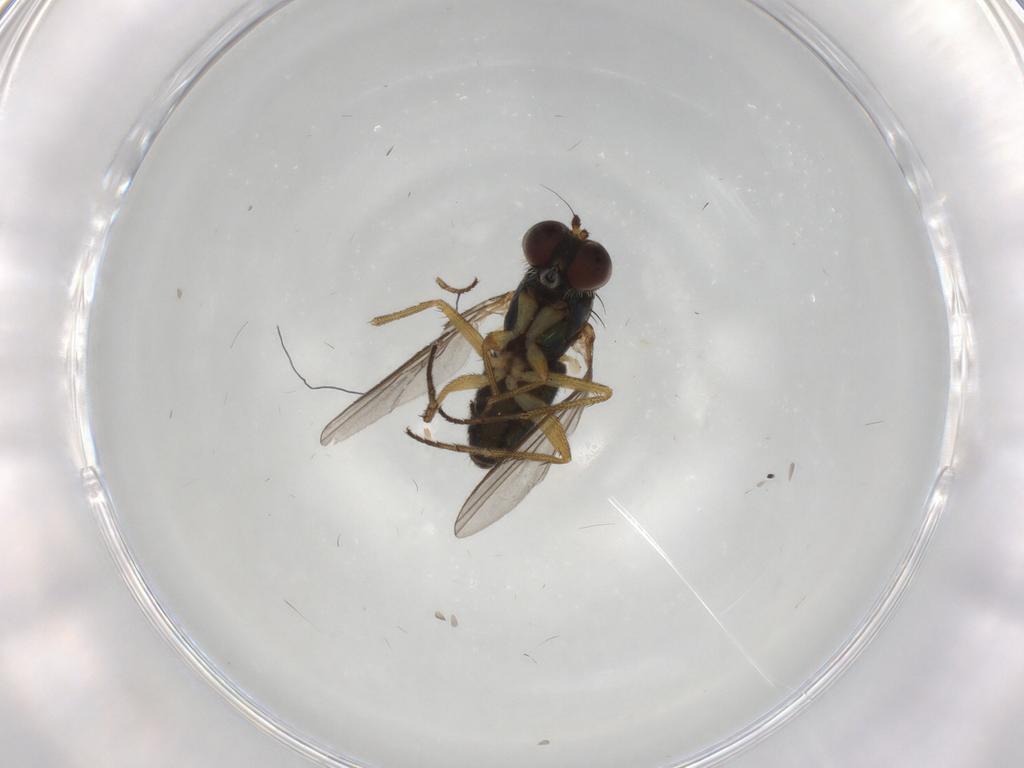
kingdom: Animalia
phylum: Arthropoda
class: Insecta
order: Diptera
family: Chironomidae
